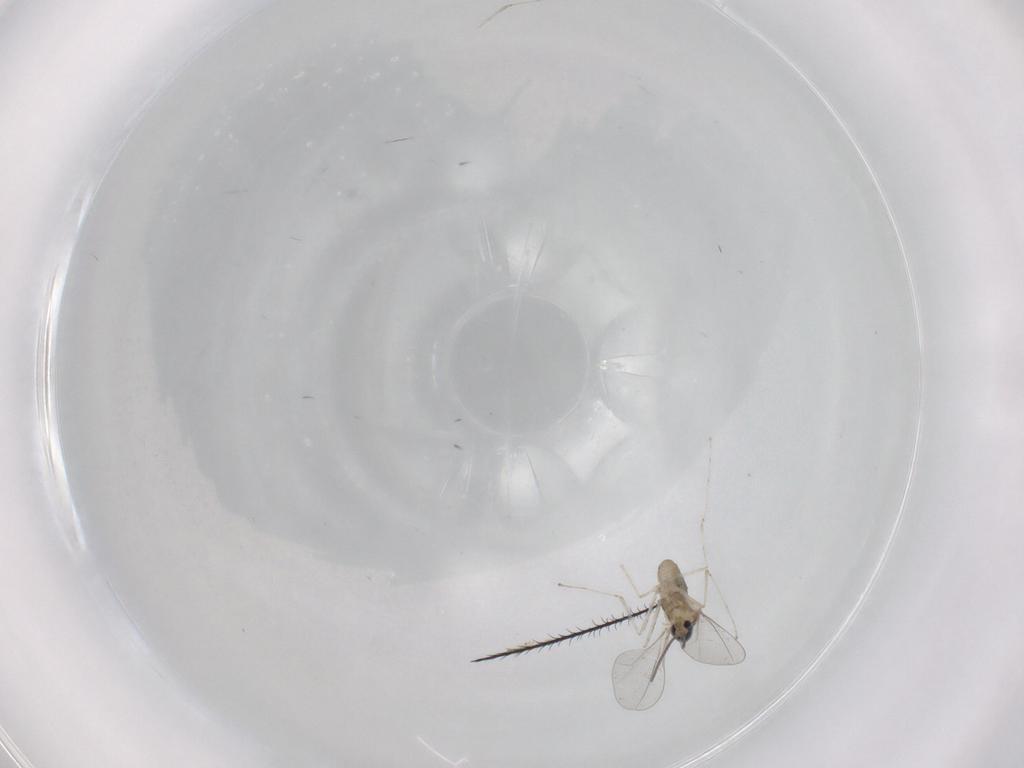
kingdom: Animalia
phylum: Arthropoda
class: Insecta
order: Diptera
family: Cecidomyiidae
